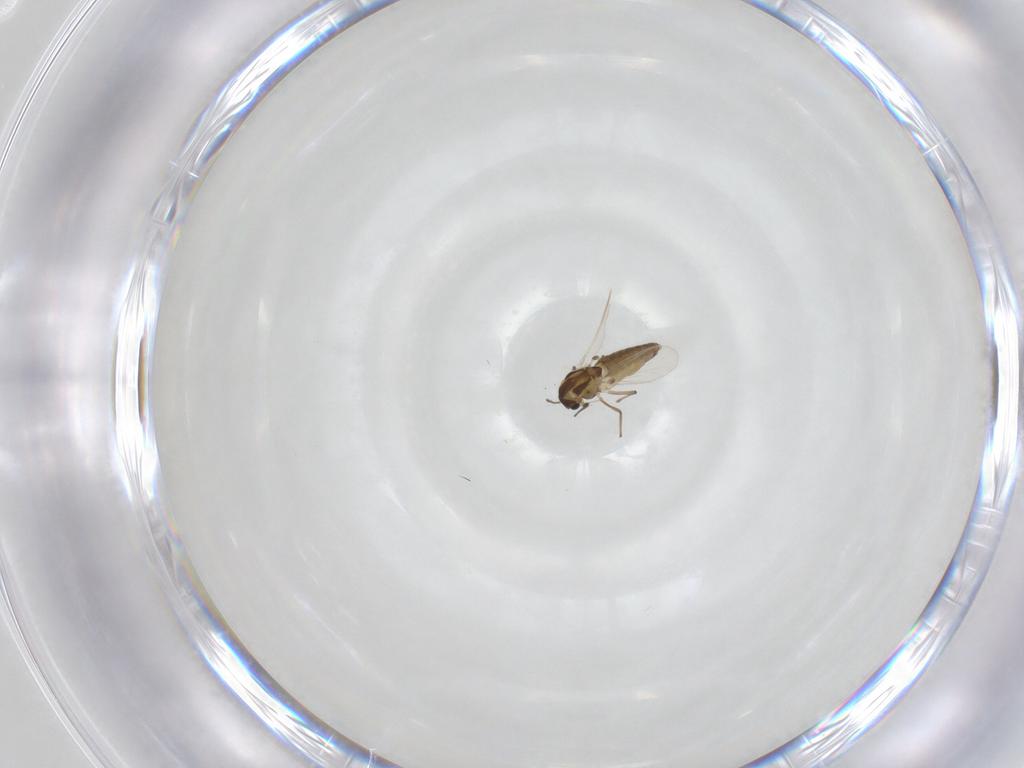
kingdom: Animalia
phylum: Arthropoda
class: Insecta
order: Diptera
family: Chironomidae
